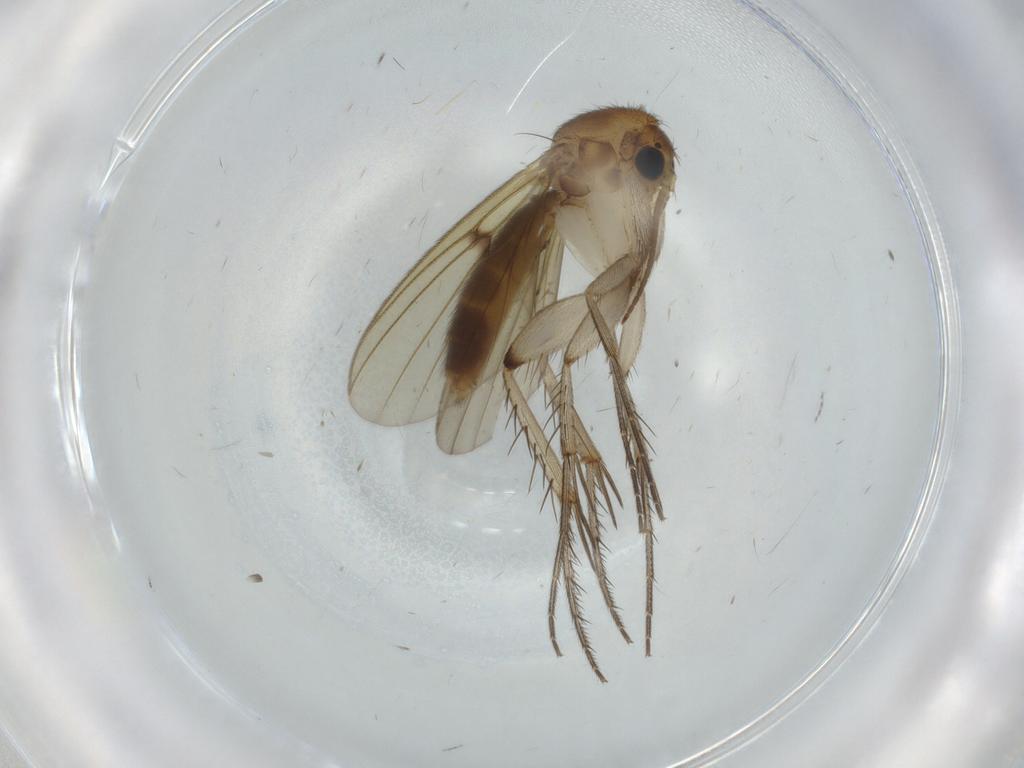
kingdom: Animalia
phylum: Arthropoda
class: Insecta
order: Diptera
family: Mycetophilidae
